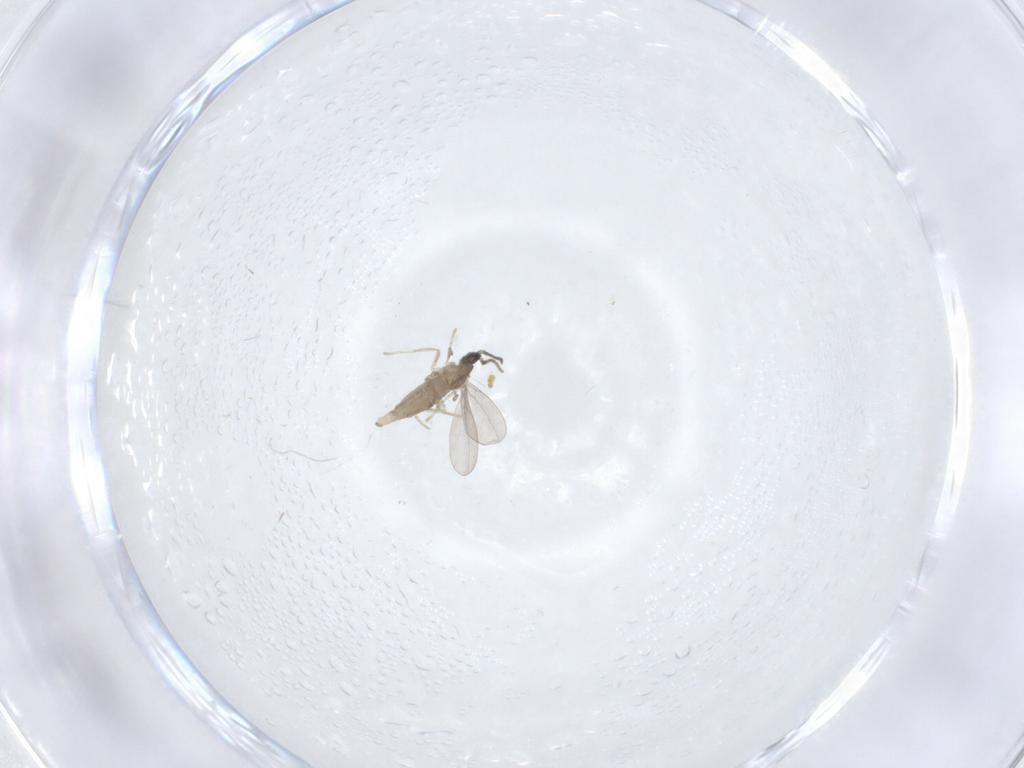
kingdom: Animalia
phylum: Arthropoda
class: Insecta
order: Diptera
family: Cecidomyiidae
